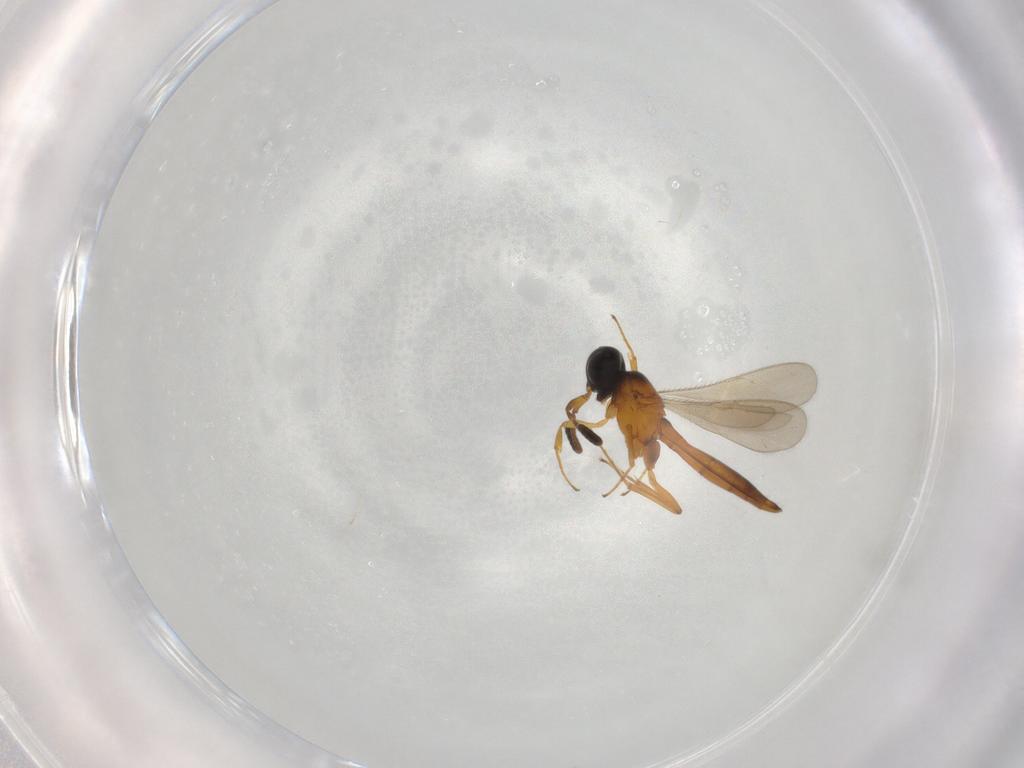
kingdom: Animalia
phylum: Arthropoda
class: Insecta
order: Hymenoptera
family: Scelionidae
